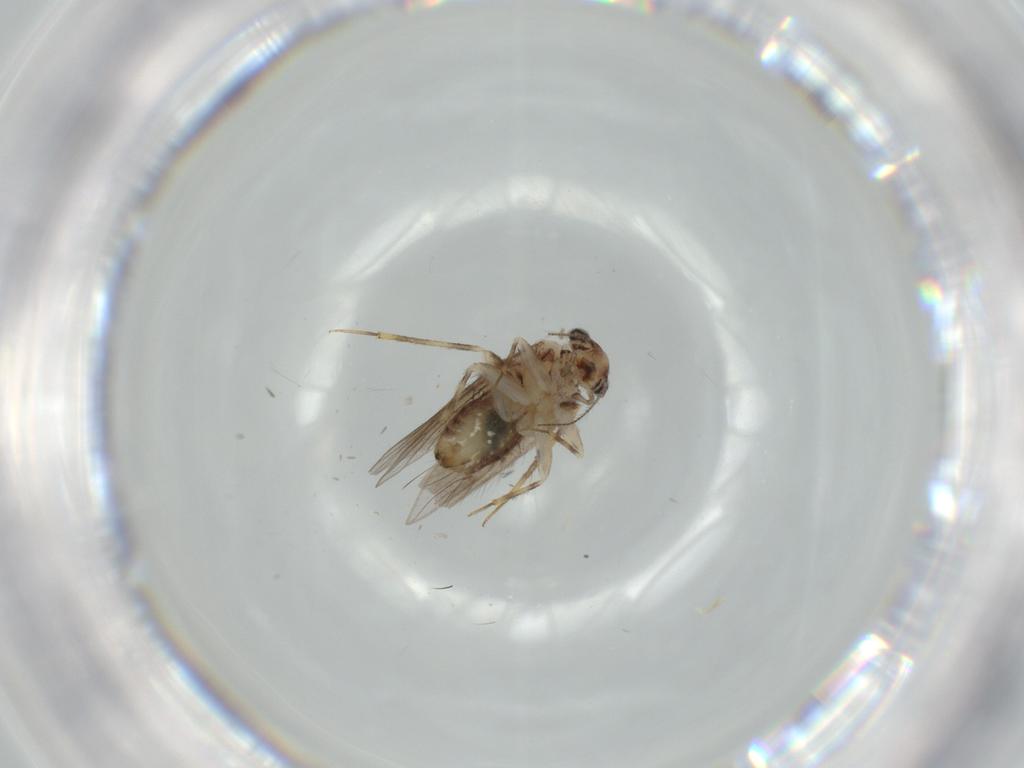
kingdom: Animalia
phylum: Arthropoda
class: Insecta
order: Psocodea
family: Lepidopsocidae
